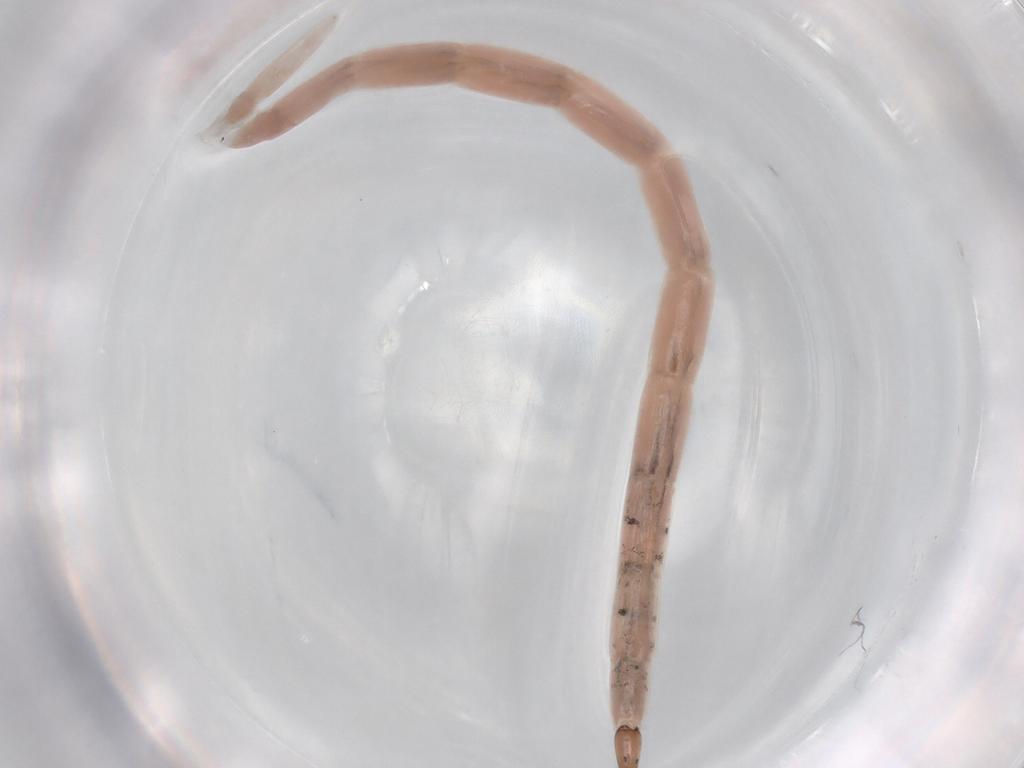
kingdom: Animalia
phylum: Arthropoda
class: Insecta
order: Diptera
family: Ceratopogonidae
